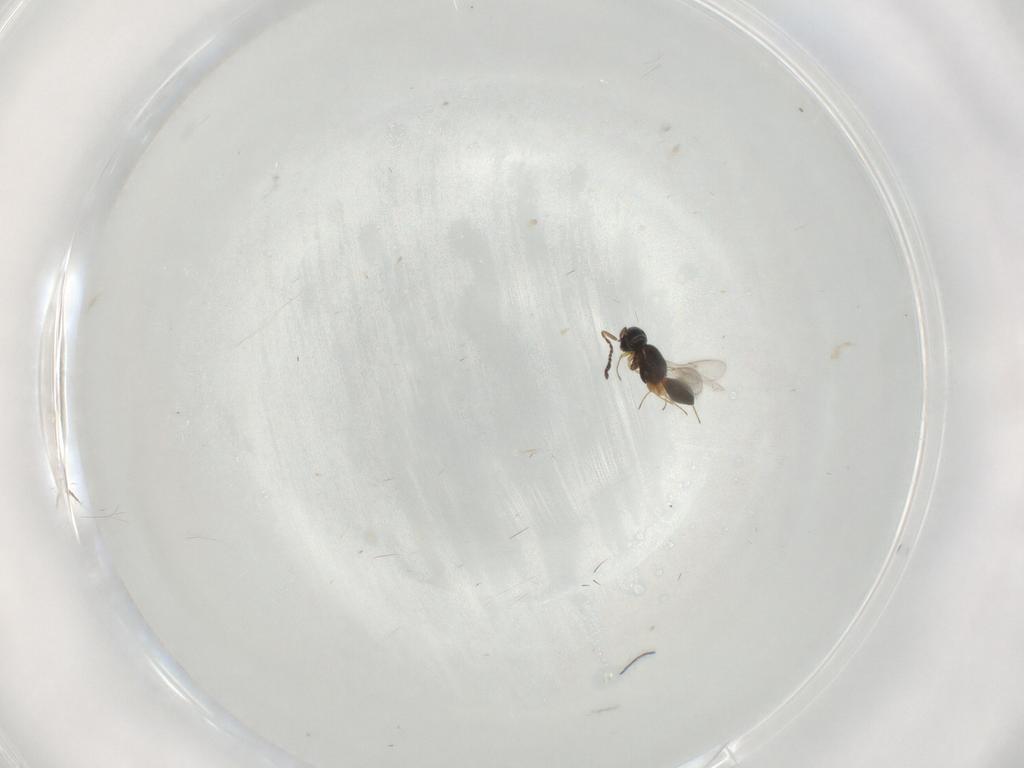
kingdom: Animalia
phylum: Arthropoda
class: Insecta
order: Hymenoptera
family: Scelionidae
